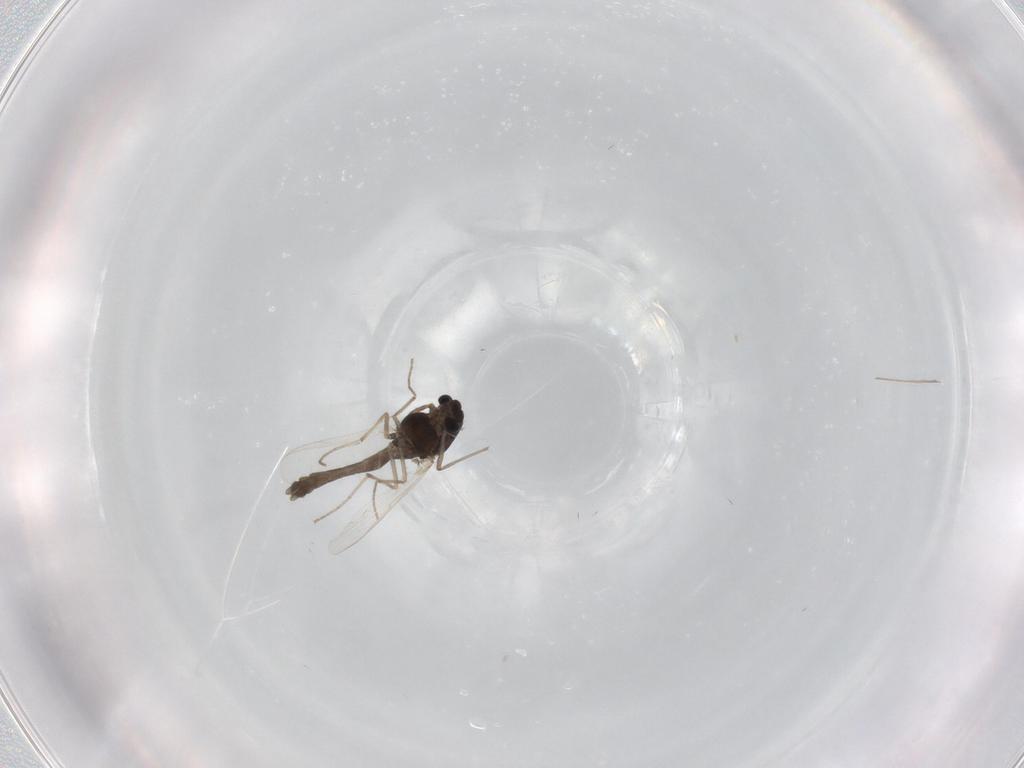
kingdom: Animalia
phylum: Arthropoda
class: Insecta
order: Diptera
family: Chironomidae
